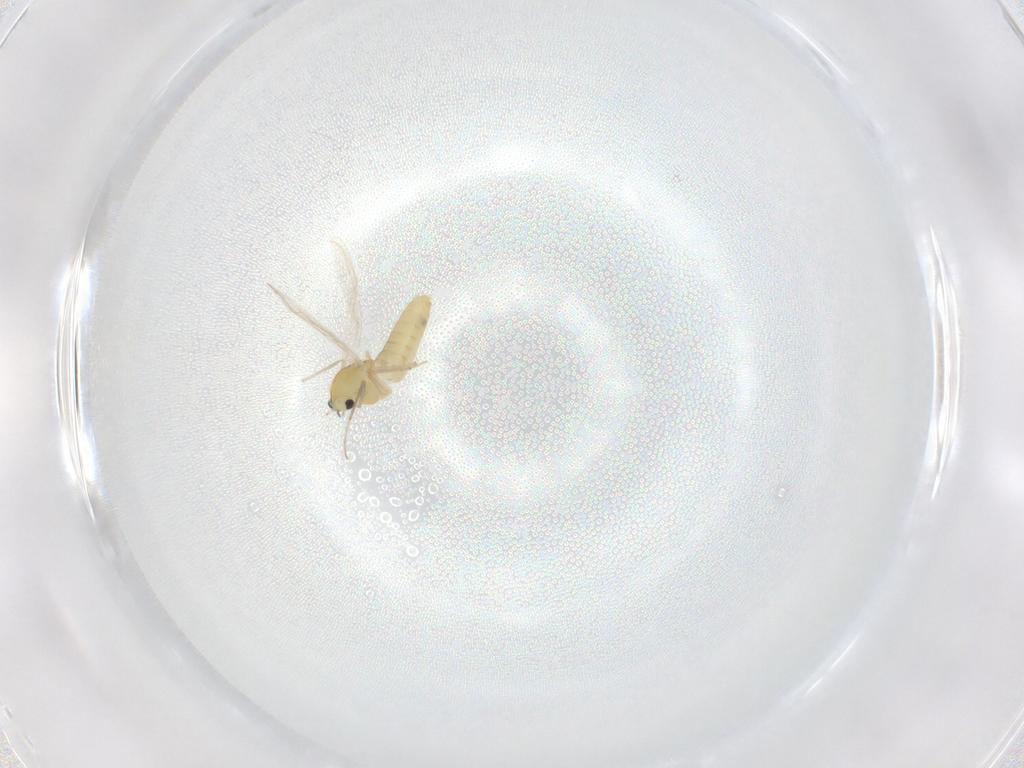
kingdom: Animalia
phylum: Arthropoda
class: Insecta
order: Diptera
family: Chironomidae
